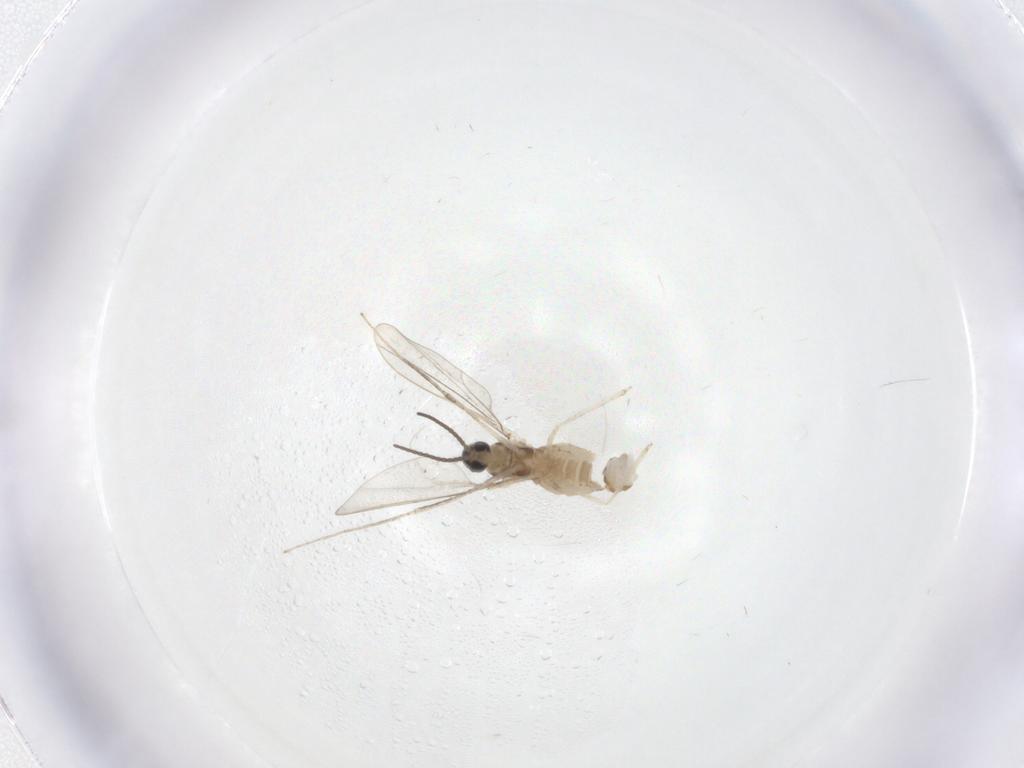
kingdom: Animalia
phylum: Arthropoda
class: Insecta
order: Diptera
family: Cecidomyiidae
